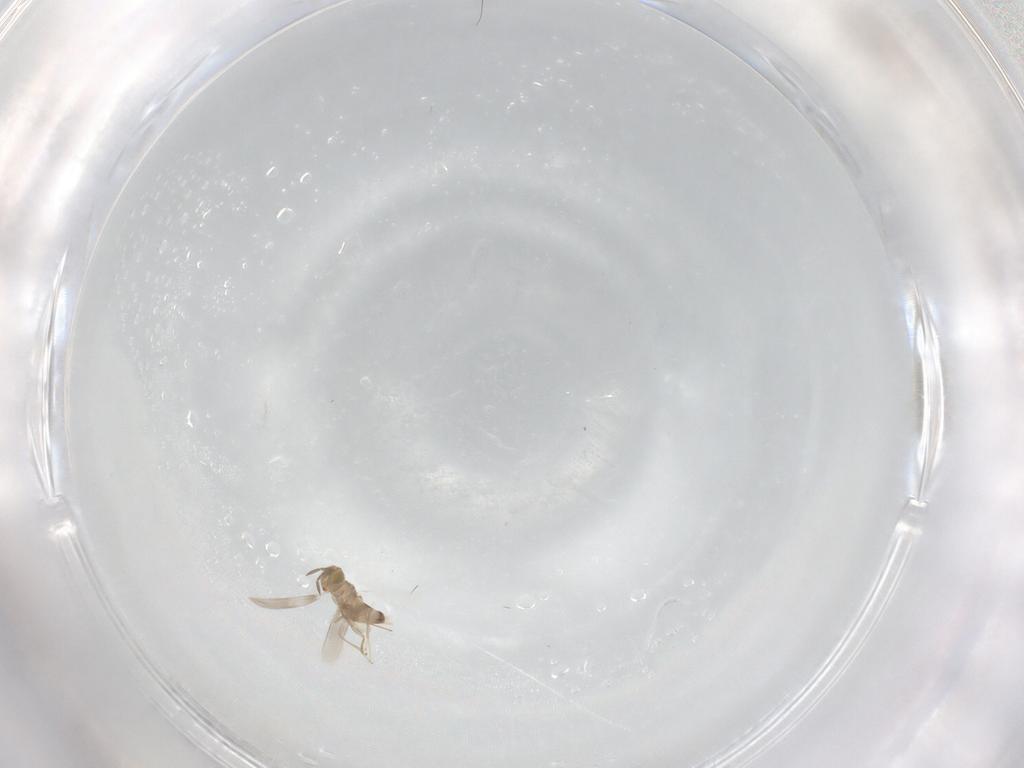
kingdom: Animalia
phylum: Arthropoda
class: Insecta
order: Hymenoptera
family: Aphelinidae
